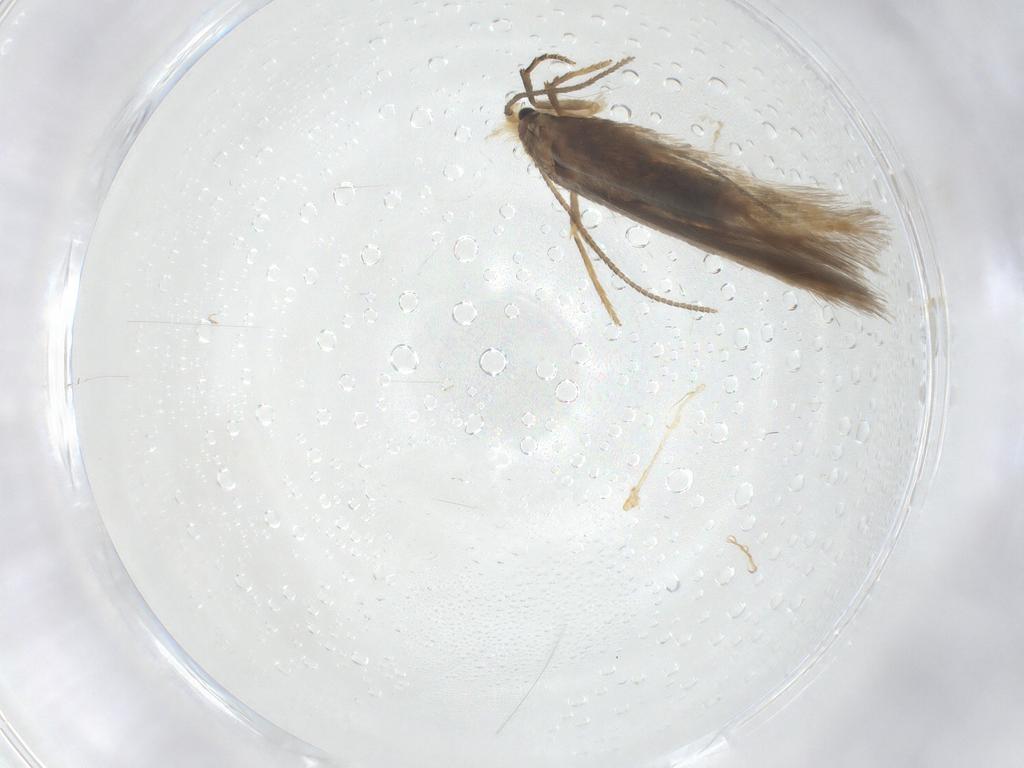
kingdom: Animalia
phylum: Arthropoda
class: Insecta
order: Lepidoptera
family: Nepticulidae
